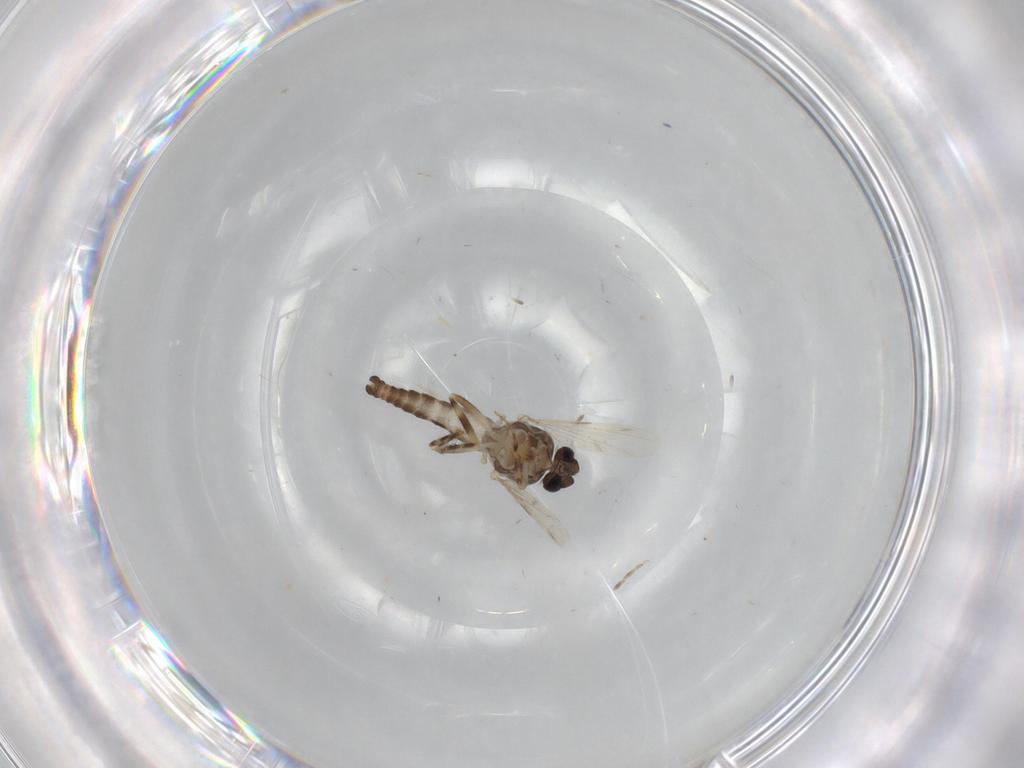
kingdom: Animalia
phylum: Arthropoda
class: Insecta
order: Diptera
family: Ceratopogonidae
